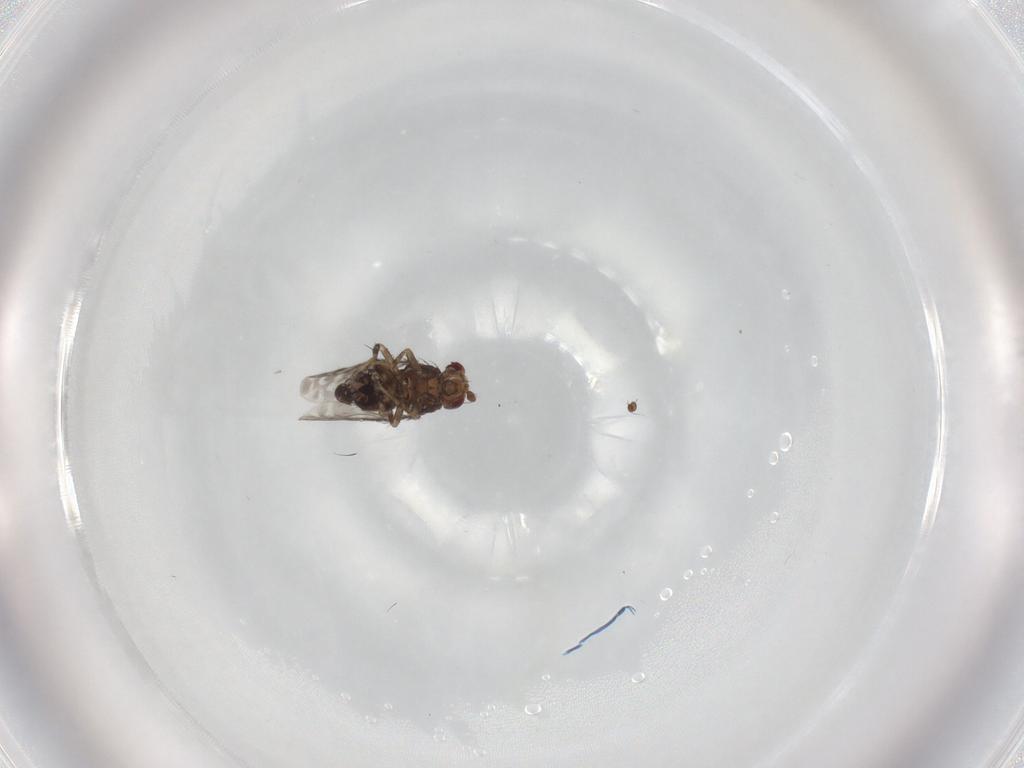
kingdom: Animalia
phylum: Arthropoda
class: Insecta
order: Diptera
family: Sphaeroceridae
